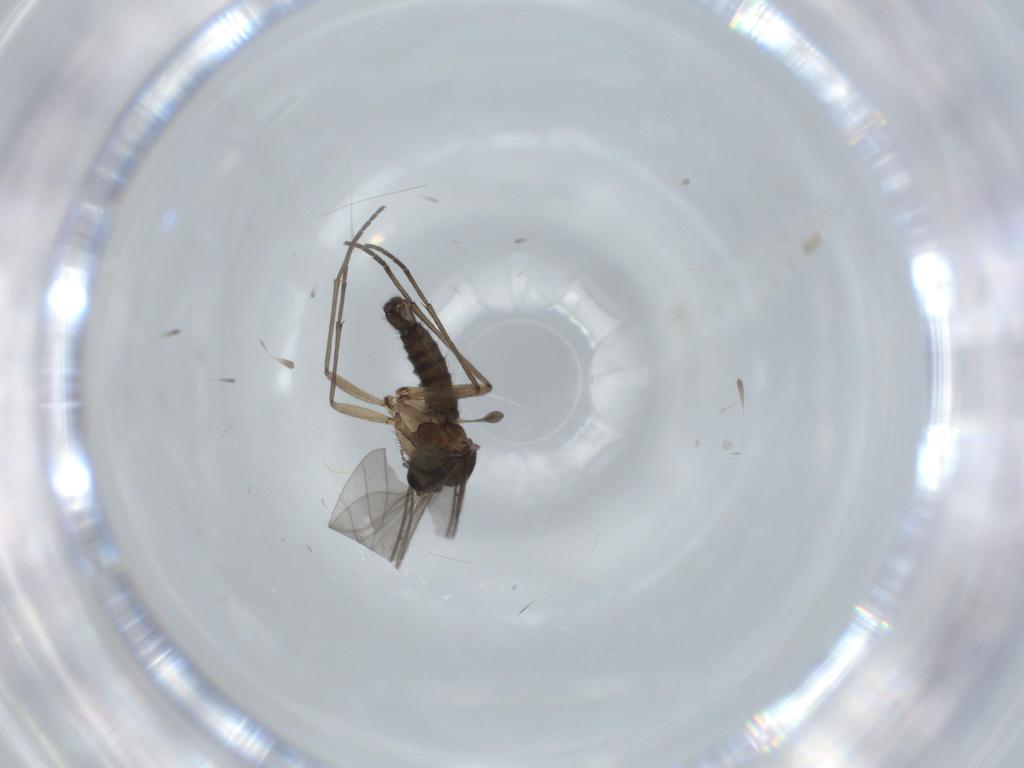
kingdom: Animalia
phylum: Arthropoda
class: Insecta
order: Diptera
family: Sciaridae
